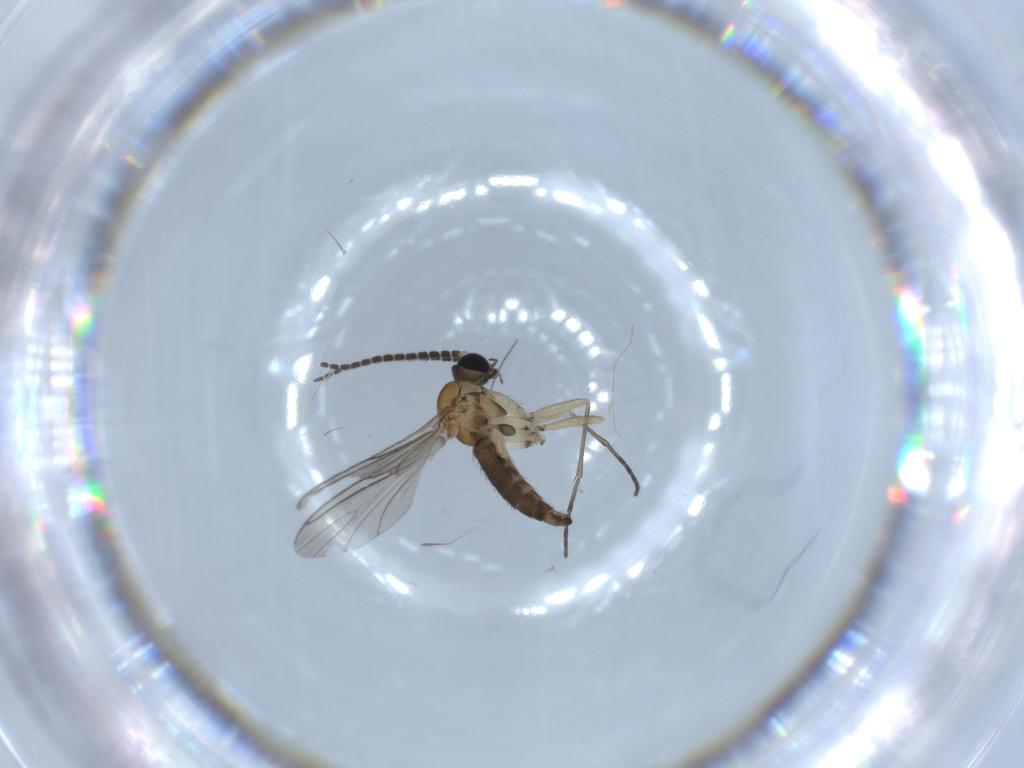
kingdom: Animalia
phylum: Arthropoda
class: Insecta
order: Diptera
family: Sciaridae
